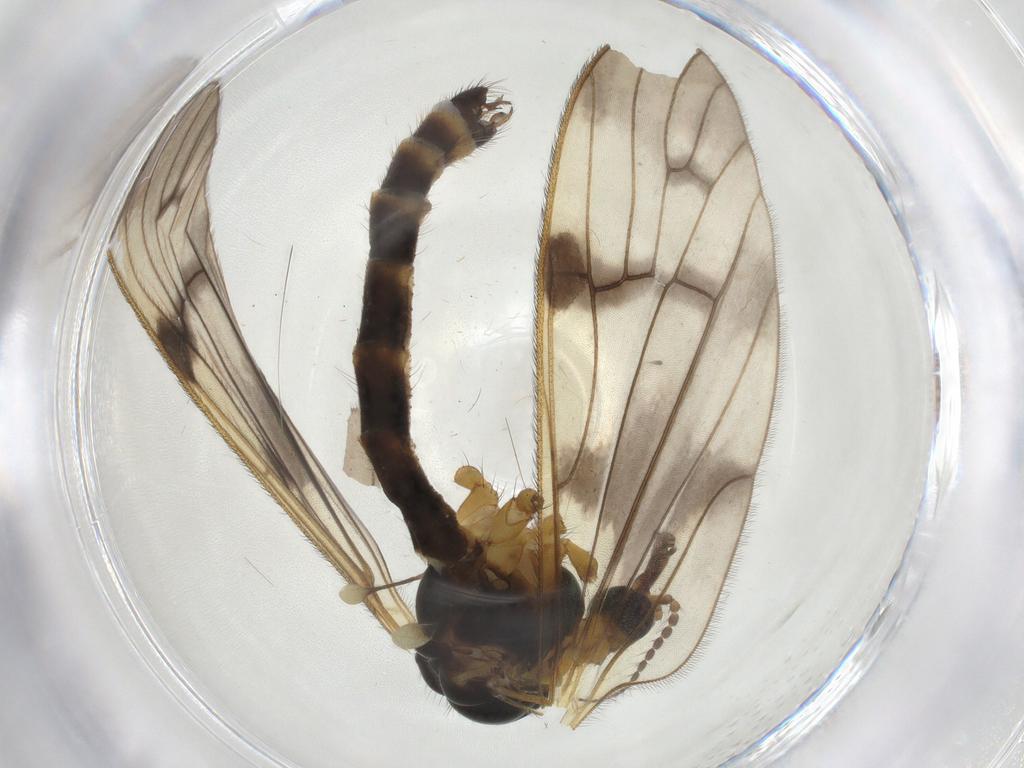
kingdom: Animalia
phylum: Arthropoda
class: Insecta
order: Diptera
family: Chironomidae
